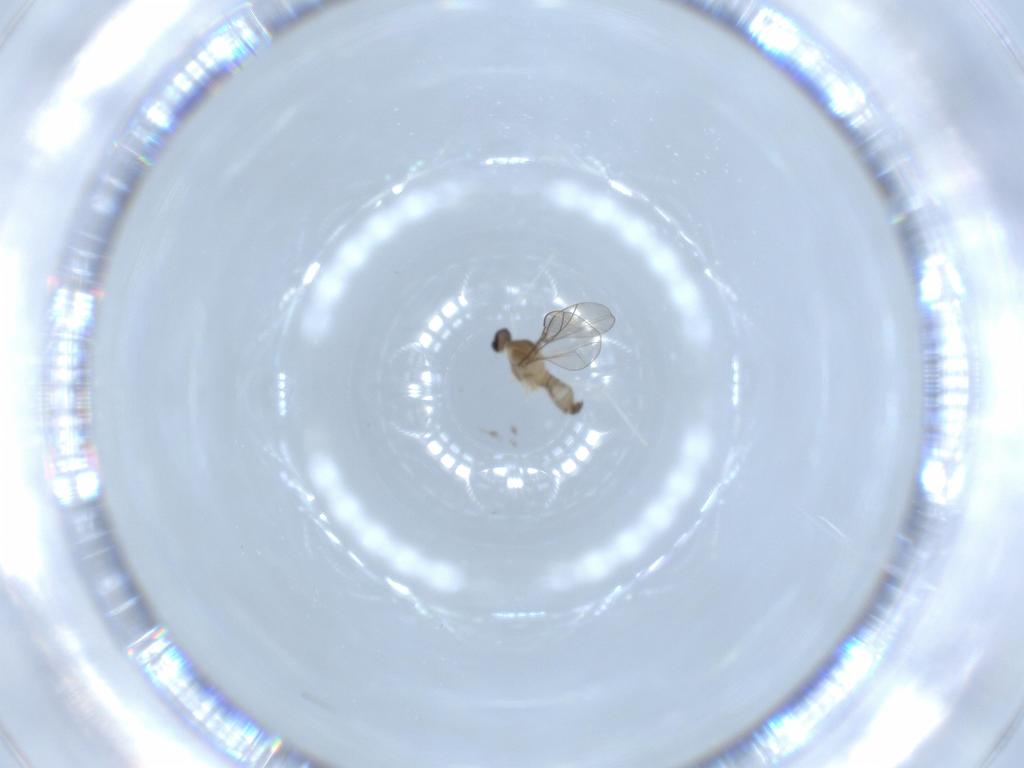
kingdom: Animalia
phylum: Arthropoda
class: Insecta
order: Diptera
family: Cecidomyiidae
